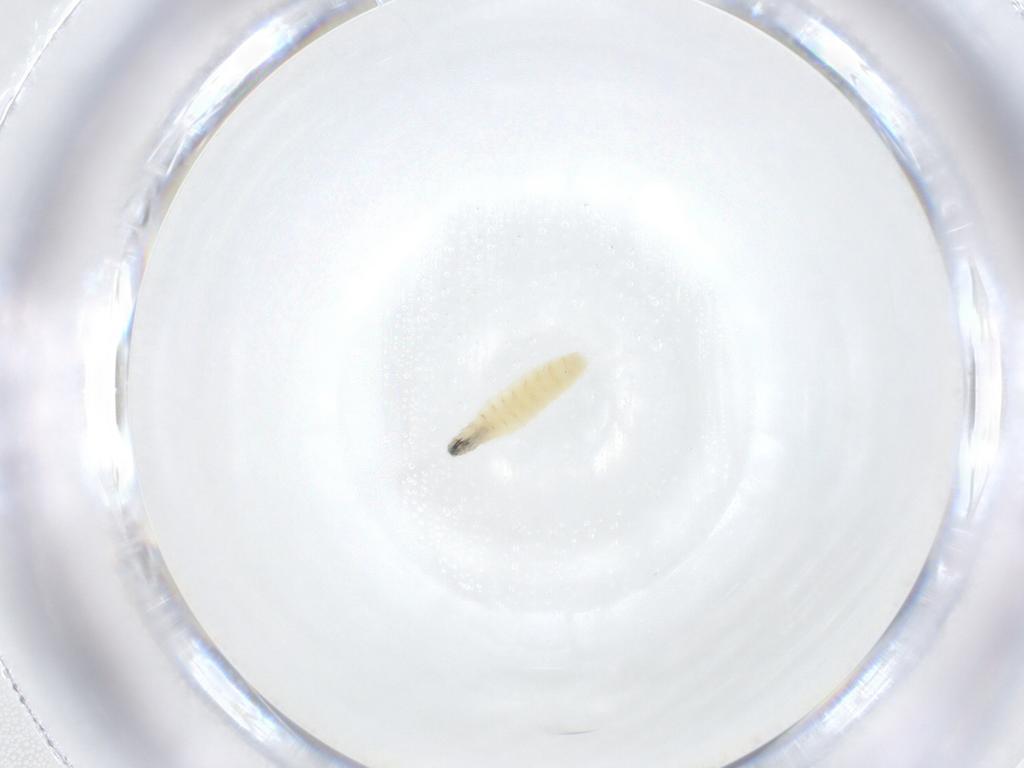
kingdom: Animalia
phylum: Arthropoda
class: Insecta
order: Diptera
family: Sarcophagidae
